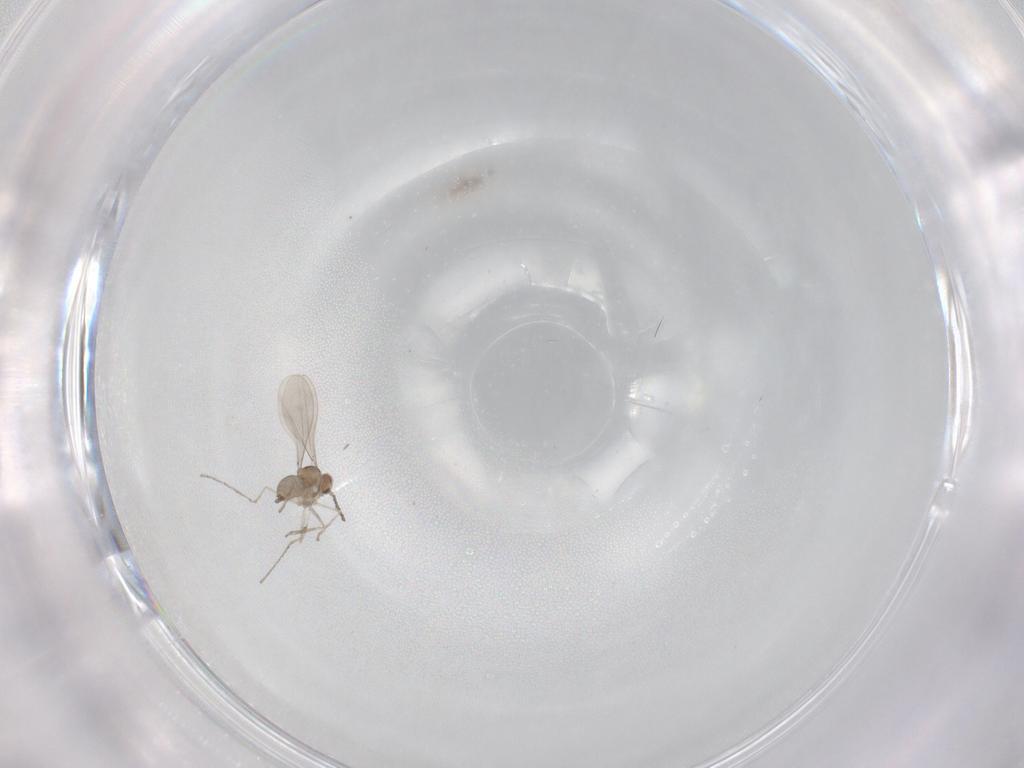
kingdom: Animalia
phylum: Arthropoda
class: Insecta
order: Diptera
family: Cecidomyiidae
